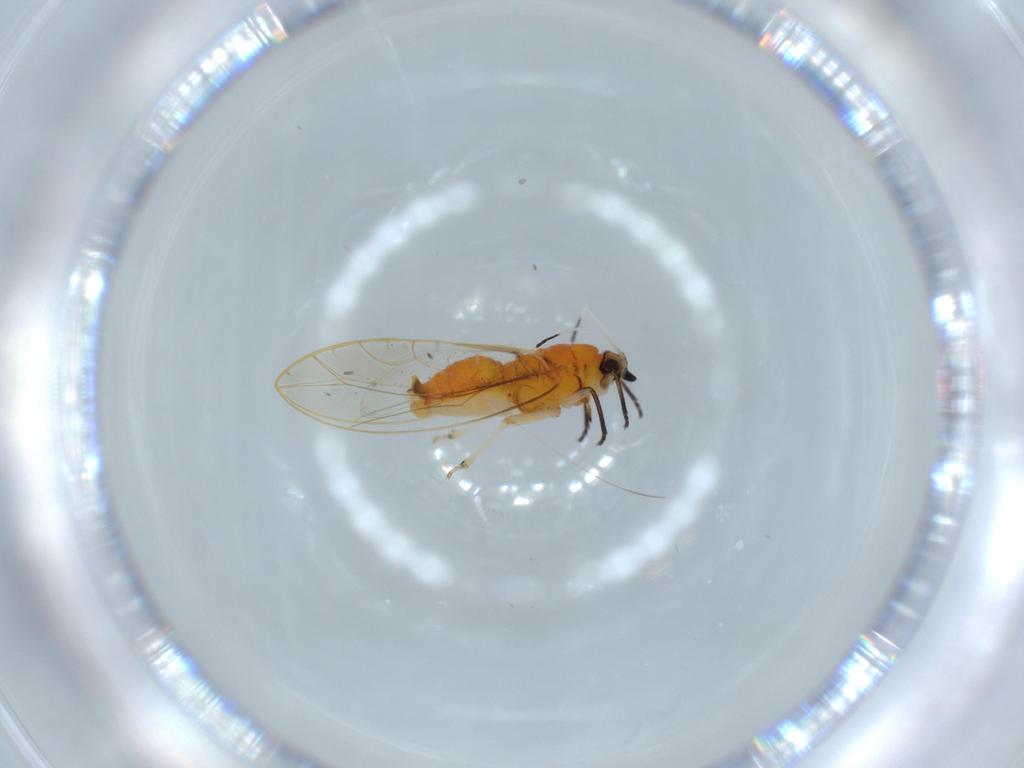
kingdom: Animalia
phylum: Arthropoda
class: Insecta
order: Hemiptera
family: Triozidae
